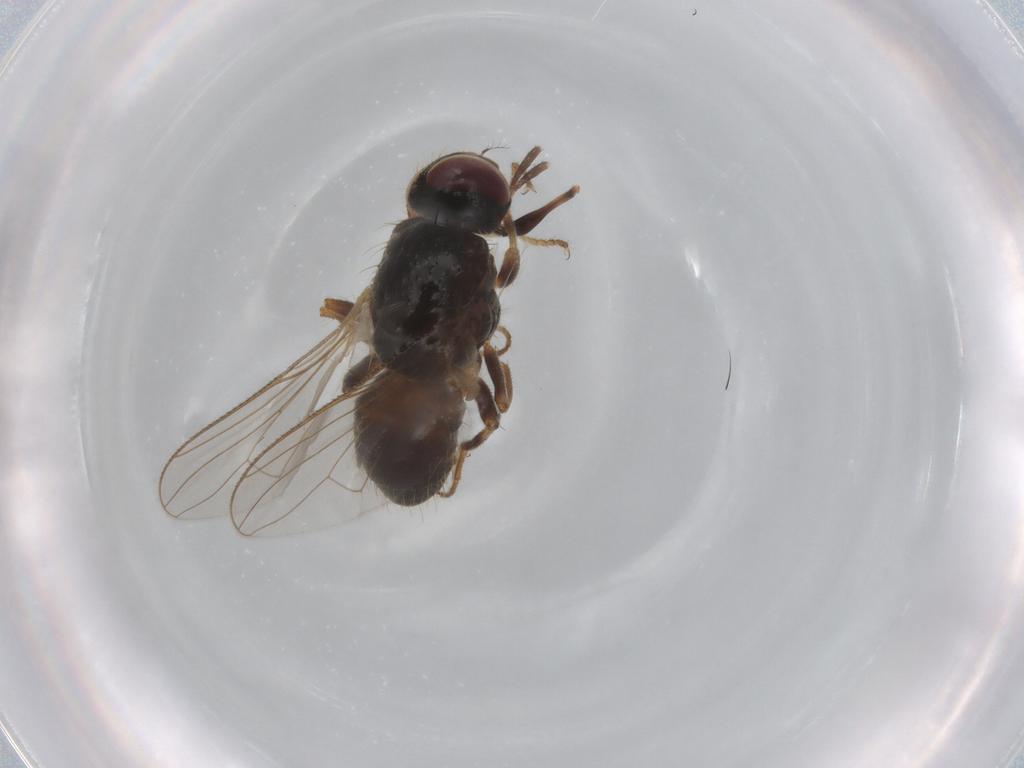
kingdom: Animalia
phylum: Arthropoda
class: Insecta
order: Diptera
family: Muscidae
